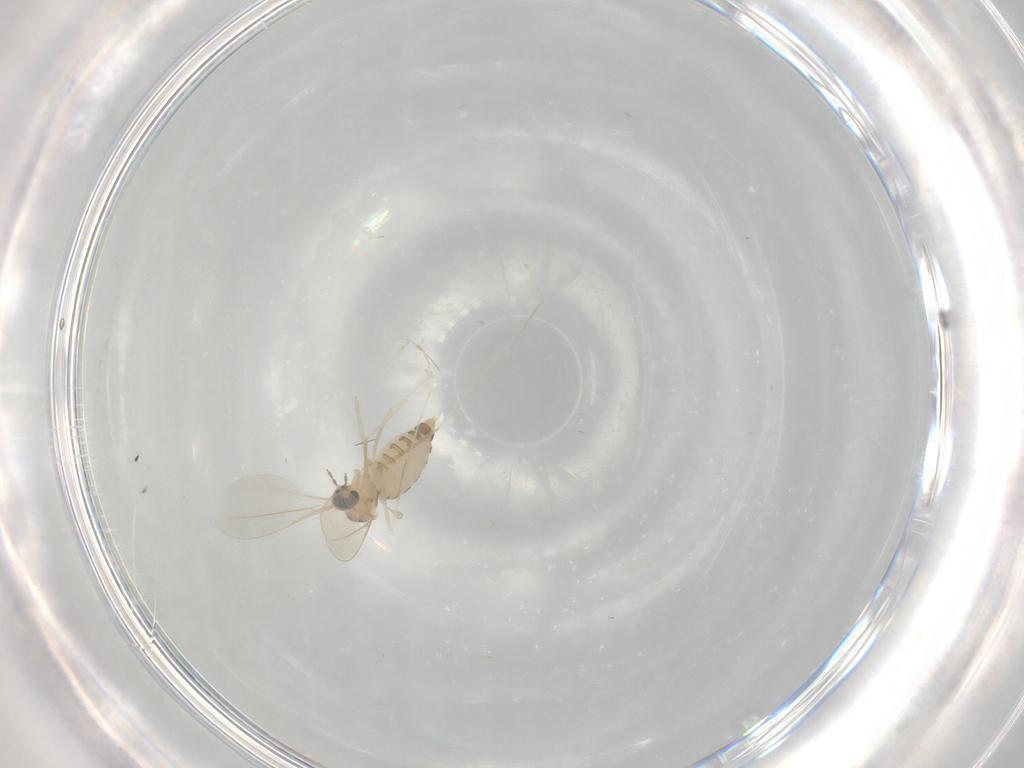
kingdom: Animalia
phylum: Arthropoda
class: Insecta
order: Diptera
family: Cecidomyiidae
